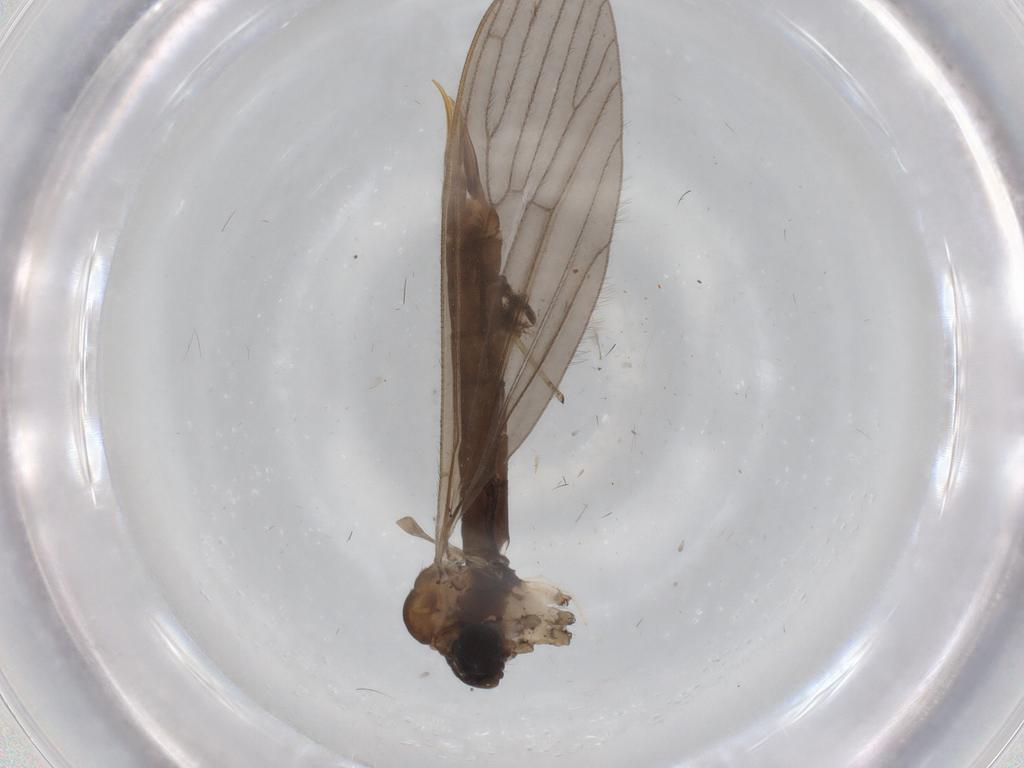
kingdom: Animalia
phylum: Arthropoda
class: Insecta
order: Diptera
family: Limoniidae
